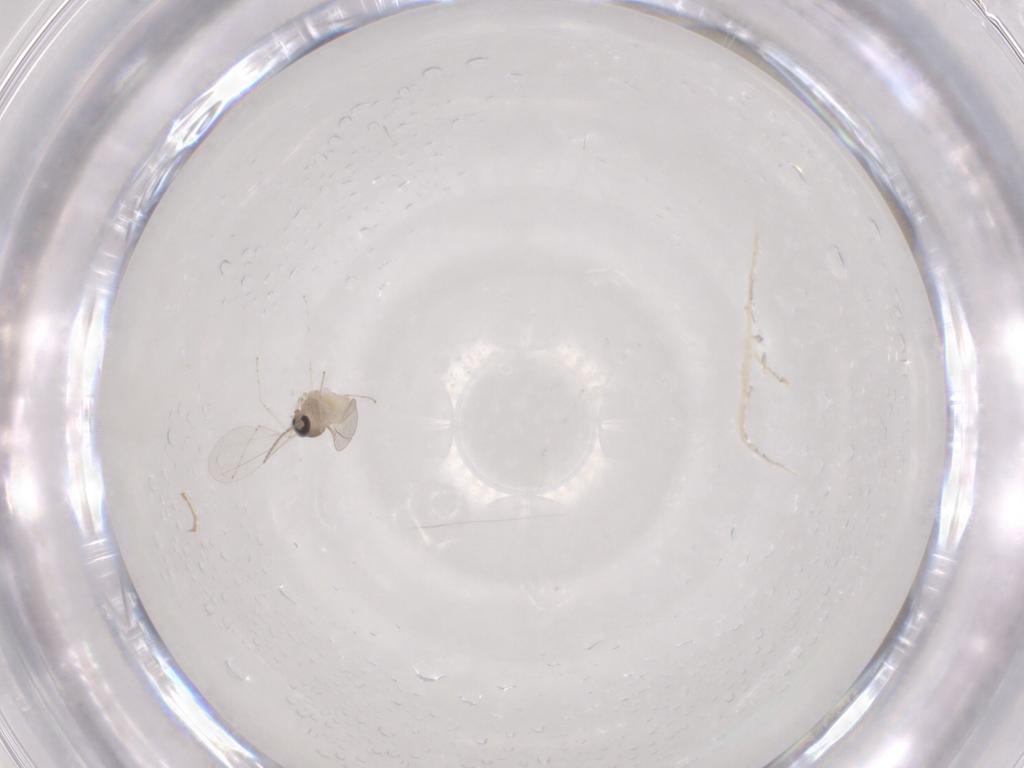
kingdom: Animalia
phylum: Arthropoda
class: Insecta
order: Diptera
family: Cecidomyiidae
